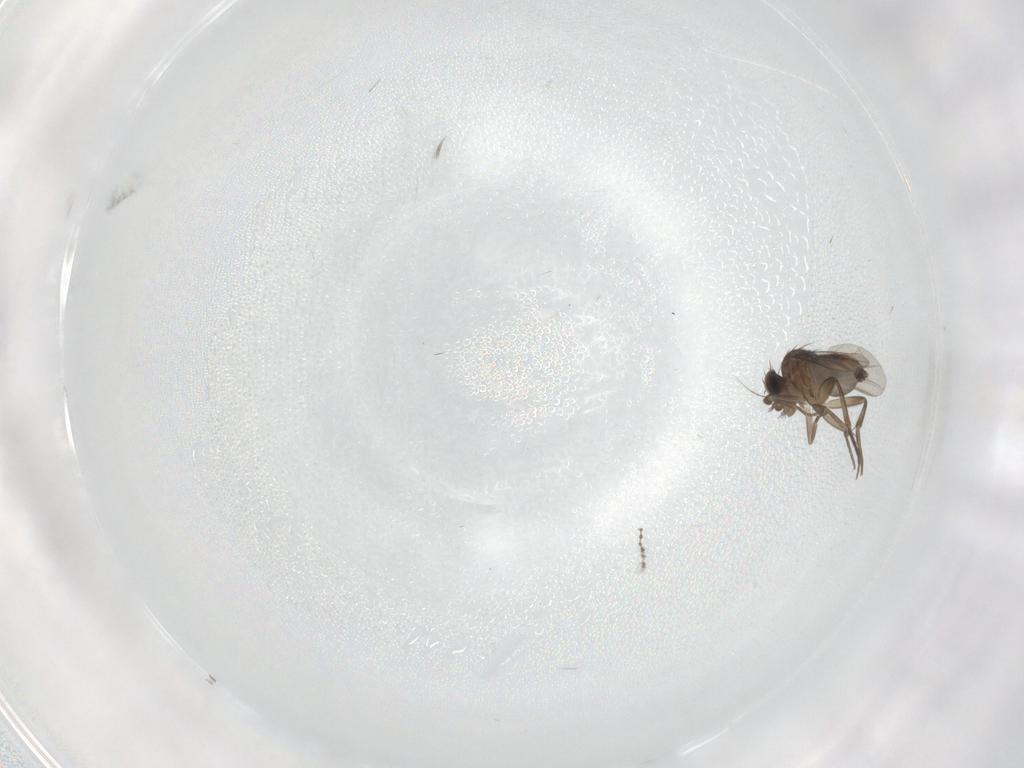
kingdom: Animalia
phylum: Arthropoda
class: Insecta
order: Diptera
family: Phoridae
